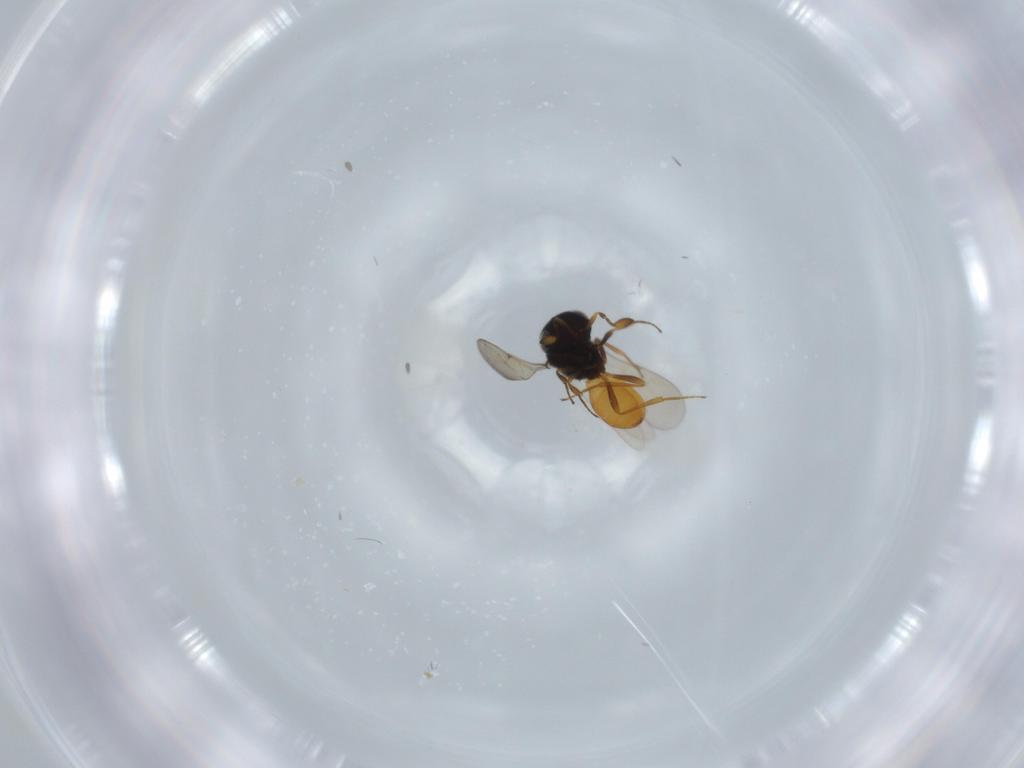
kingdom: Animalia
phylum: Arthropoda
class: Insecta
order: Hymenoptera
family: Scelionidae
